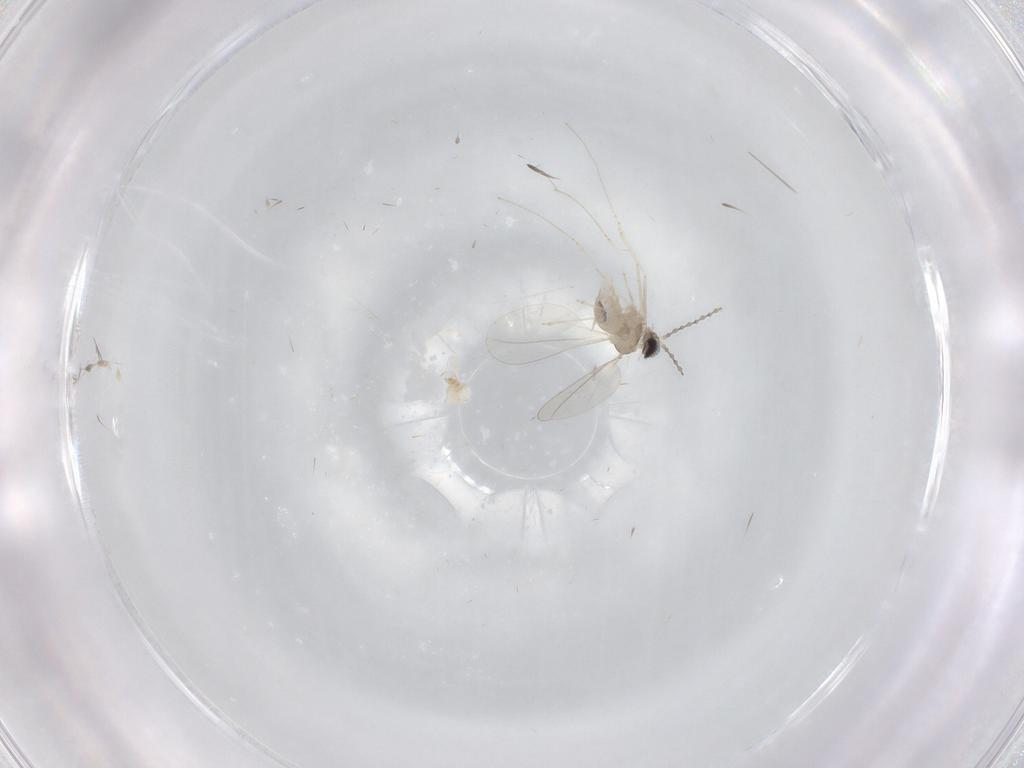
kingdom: Animalia
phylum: Arthropoda
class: Insecta
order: Diptera
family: Cecidomyiidae
